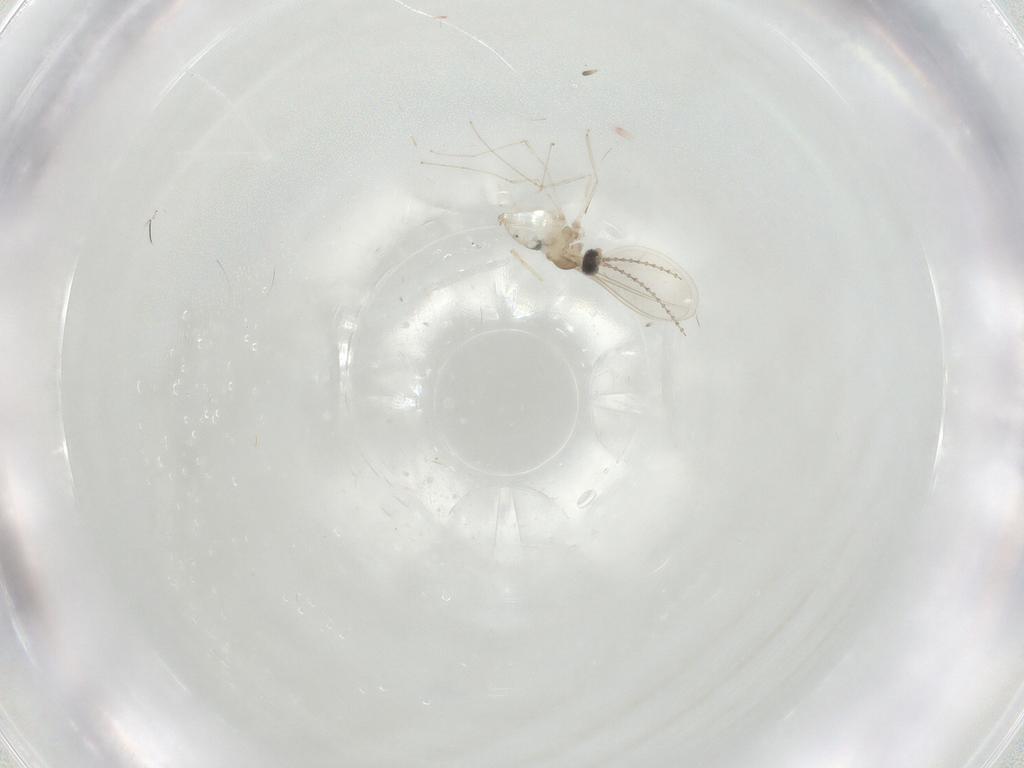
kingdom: Animalia
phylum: Arthropoda
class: Insecta
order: Diptera
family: Cecidomyiidae
